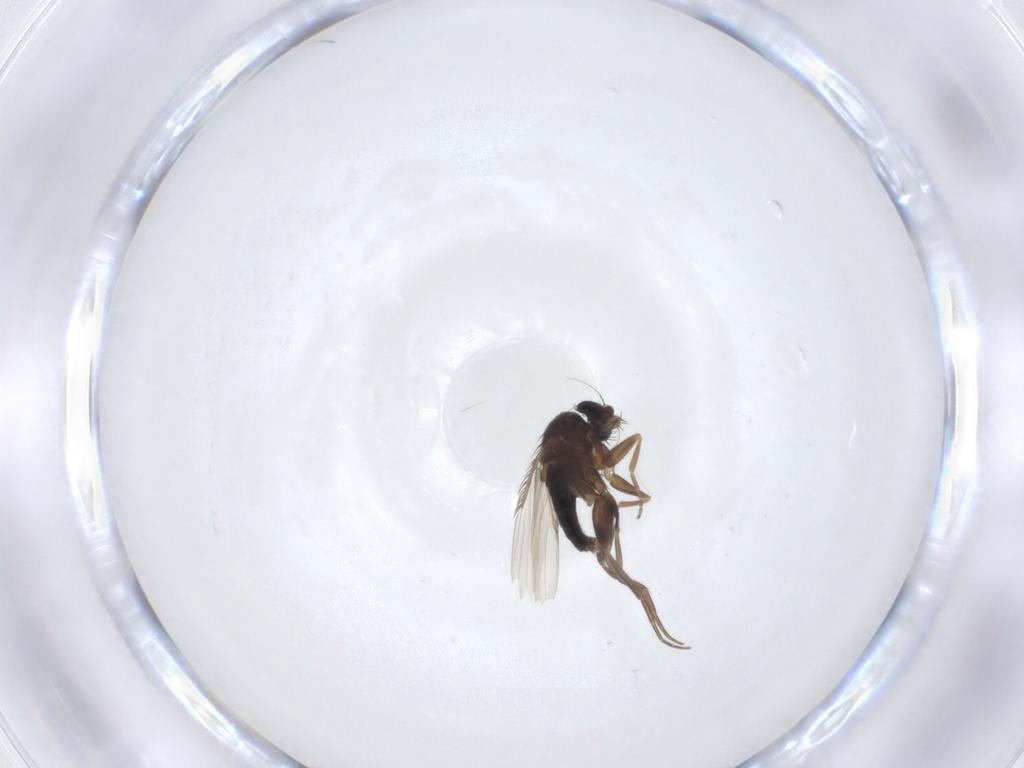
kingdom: Animalia
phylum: Arthropoda
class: Insecta
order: Diptera
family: Phoridae
